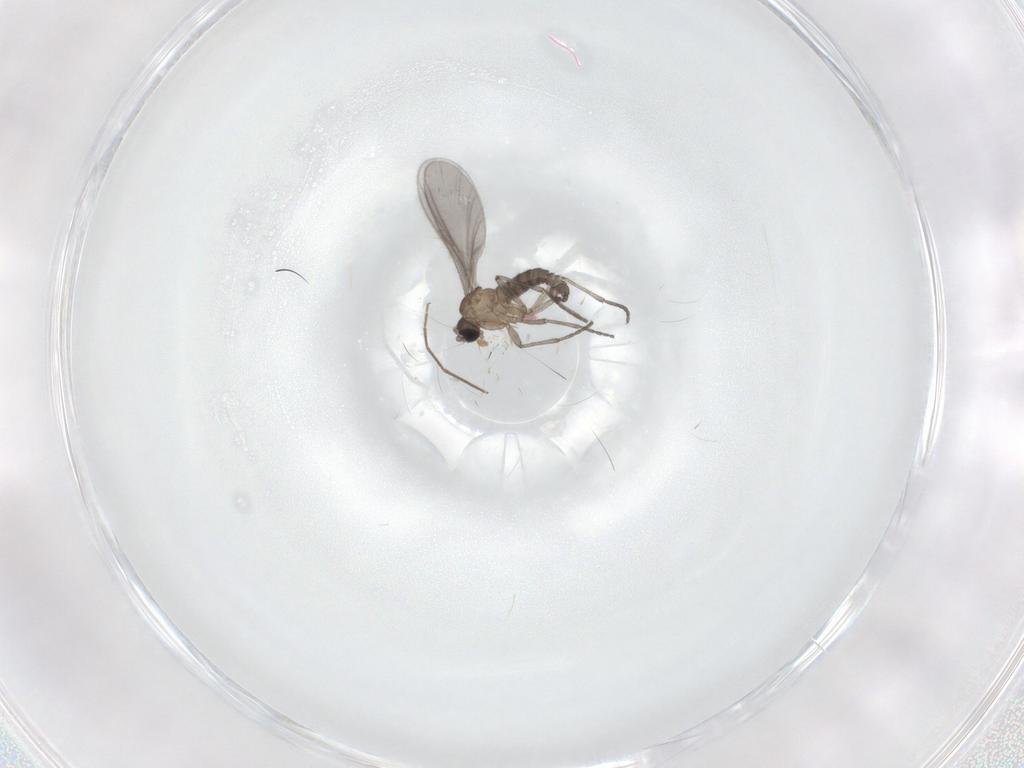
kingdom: Animalia
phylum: Arthropoda
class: Insecta
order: Diptera
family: Sciaridae
